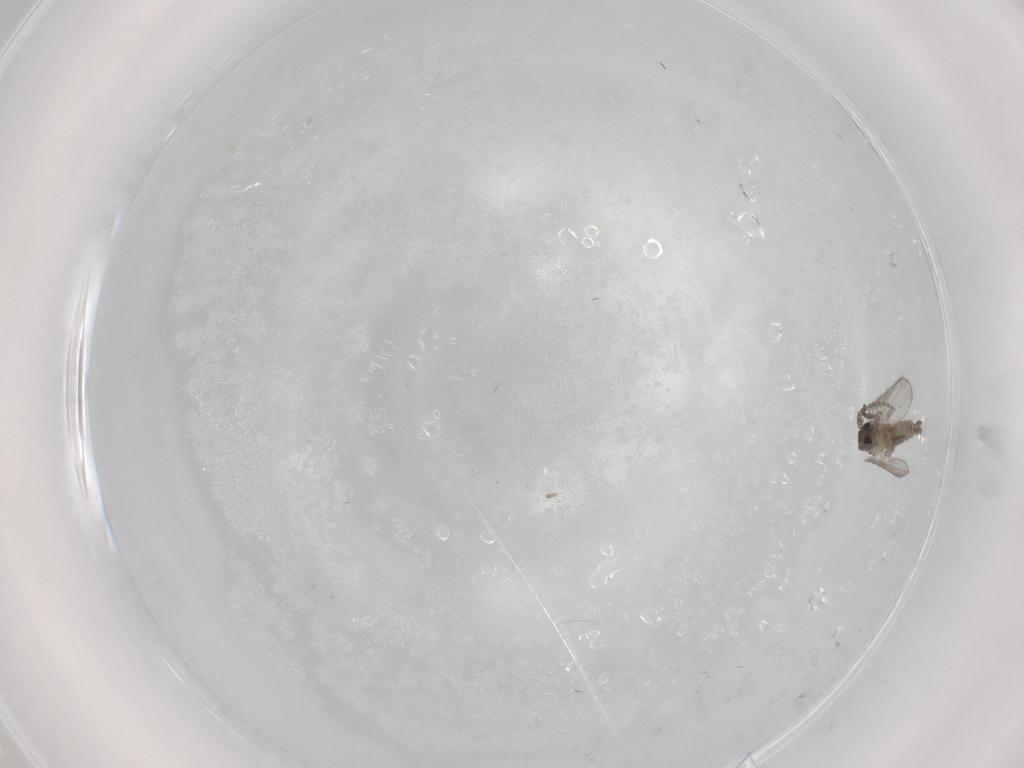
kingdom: Animalia
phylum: Arthropoda
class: Insecta
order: Diptera
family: Psychodidae
